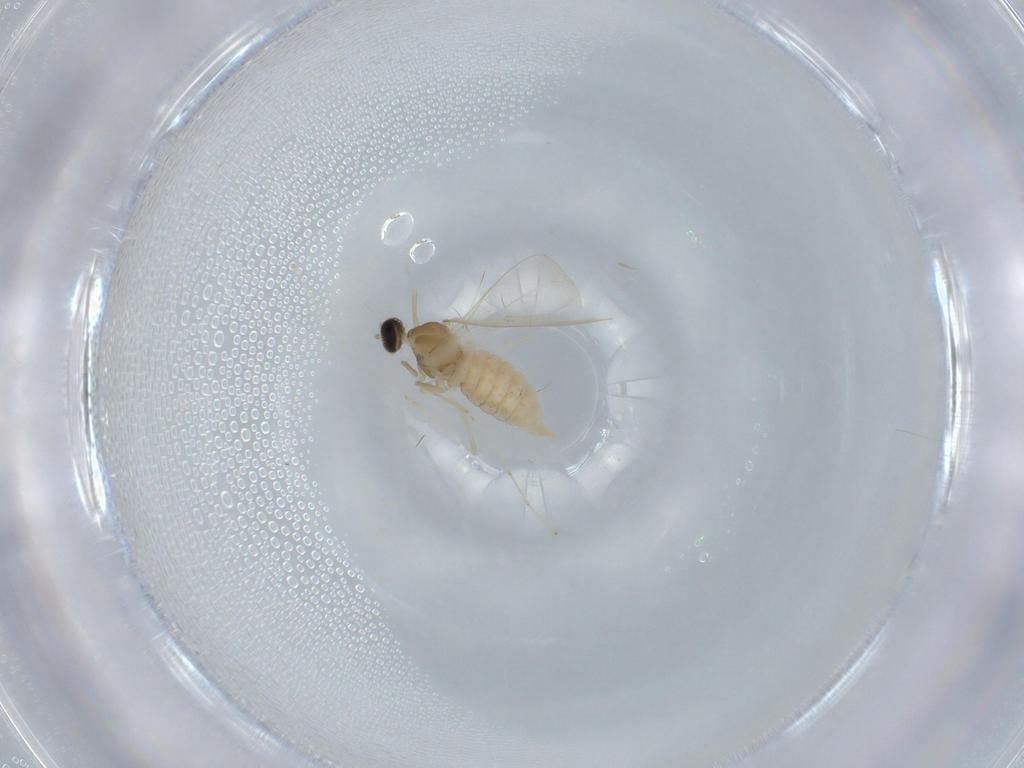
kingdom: Animalia
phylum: Arthropoda
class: Insecta
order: Diptera
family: Cecidomyiidae
